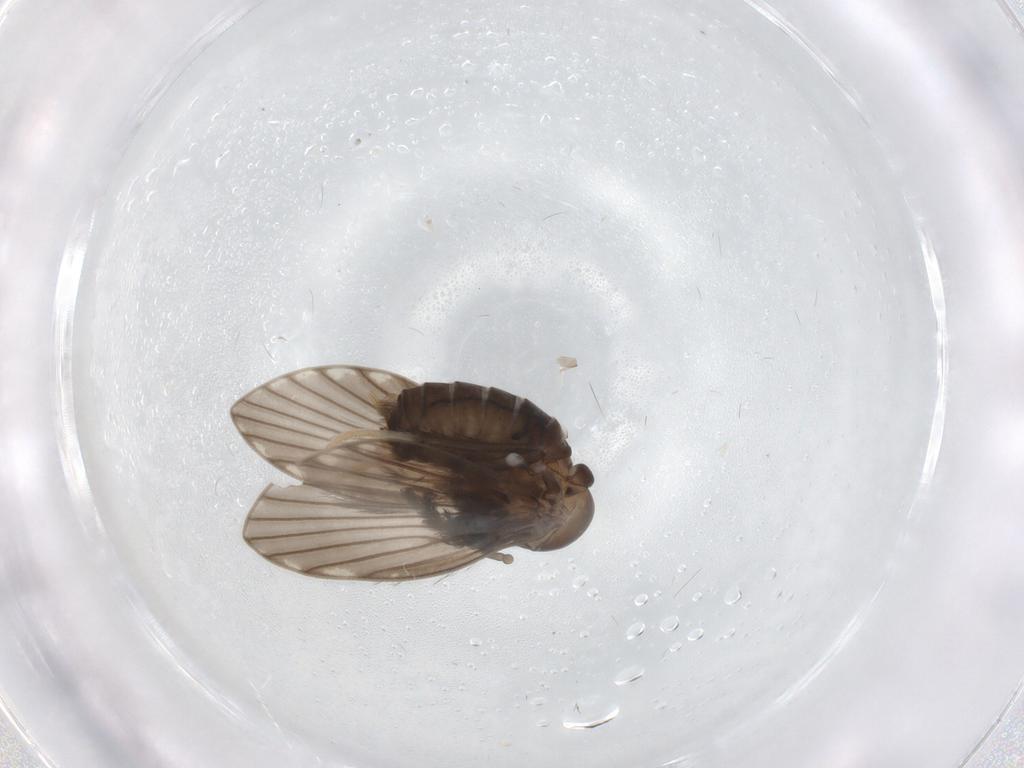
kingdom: Animalia
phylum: Arthropoda
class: Insecta
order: Diptera
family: Psychodidae
